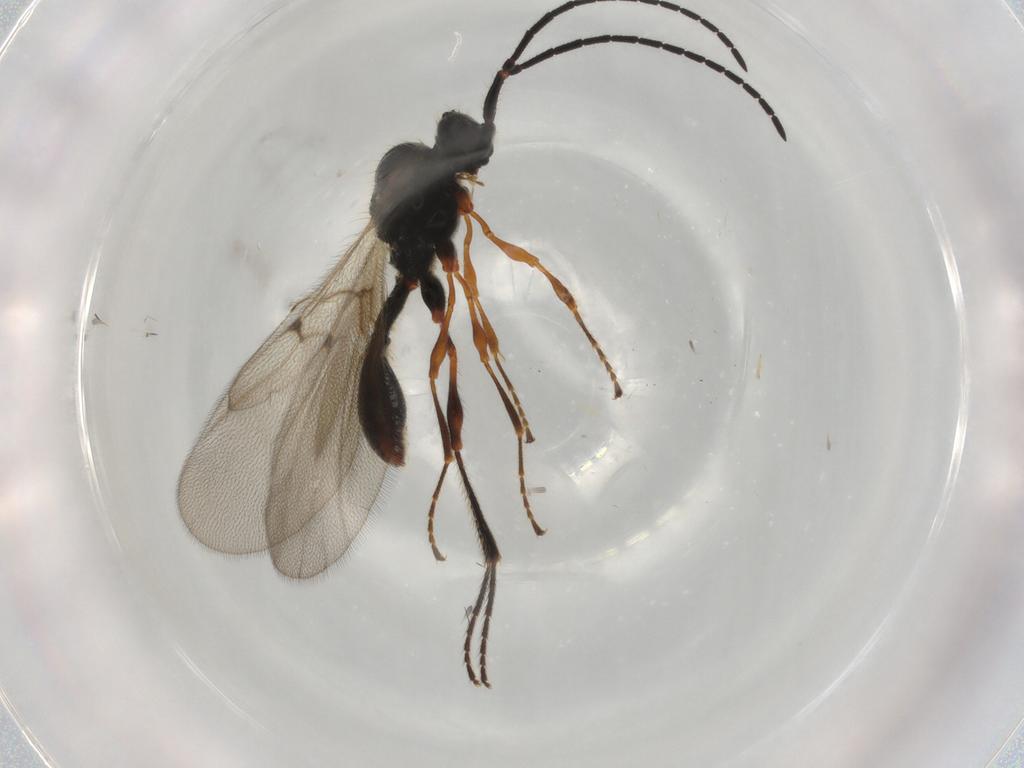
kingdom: Animalia
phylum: Arthropoda
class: Insecta
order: Hymenoptera
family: Diapriidae
